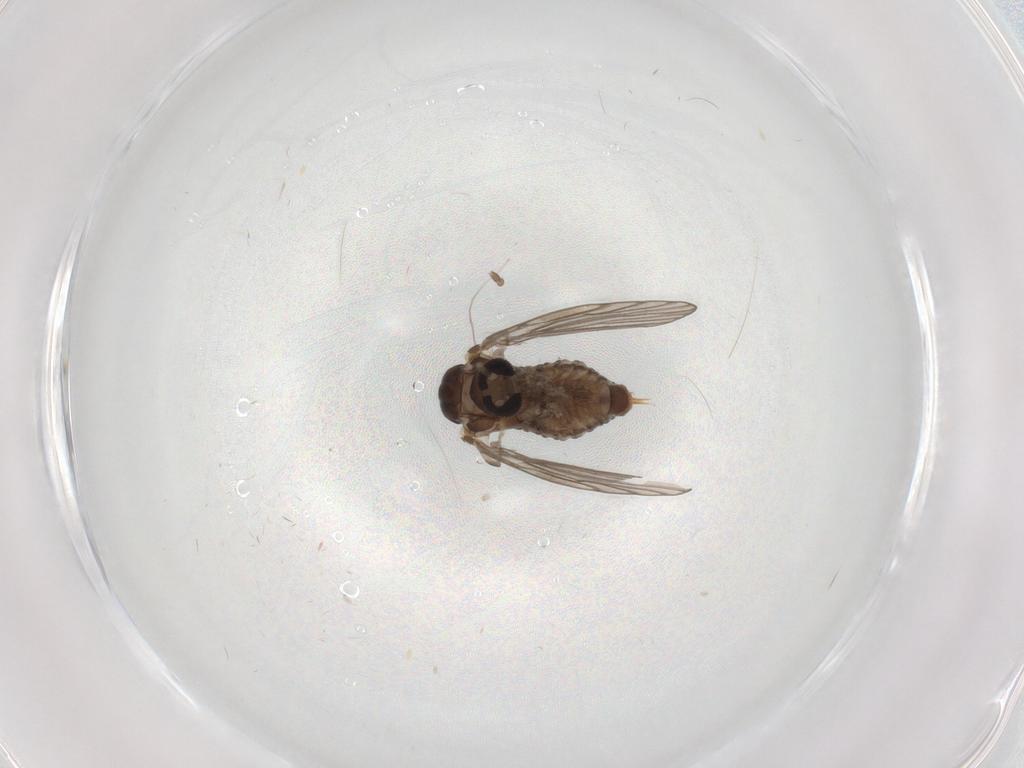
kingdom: Animalia
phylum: Arthropoda
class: Insecta
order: Diptera
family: Psychodidae
